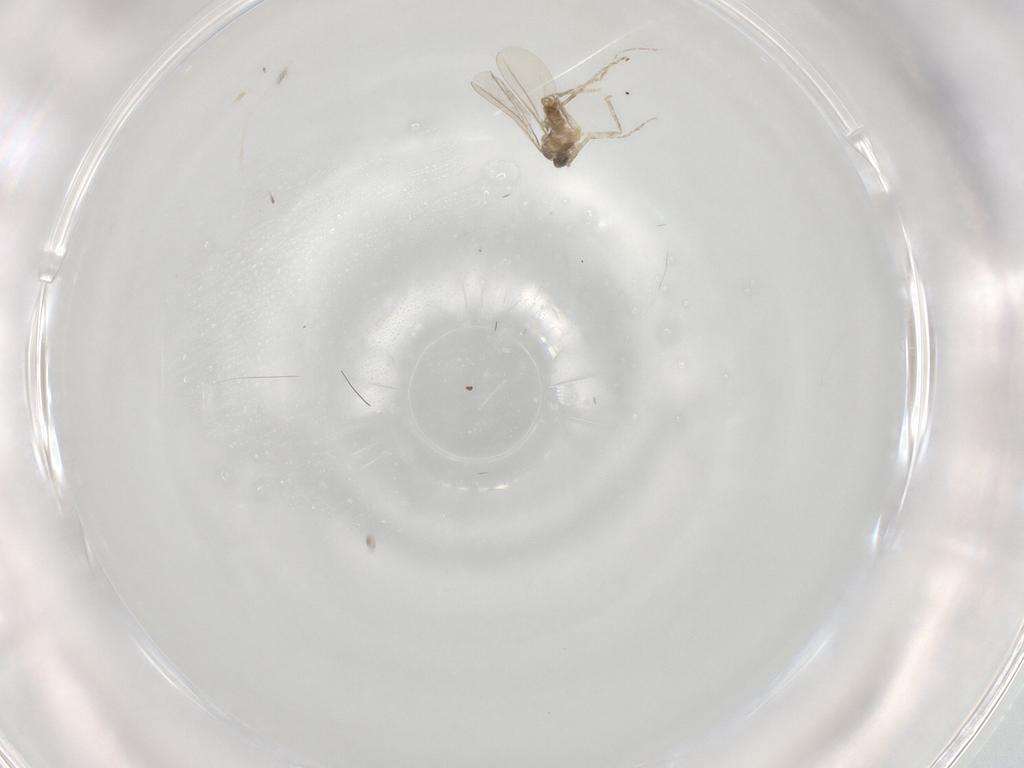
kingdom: Animalia
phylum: Arthropoda
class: Insecta
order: Diptera
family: Cecidomyiidae
